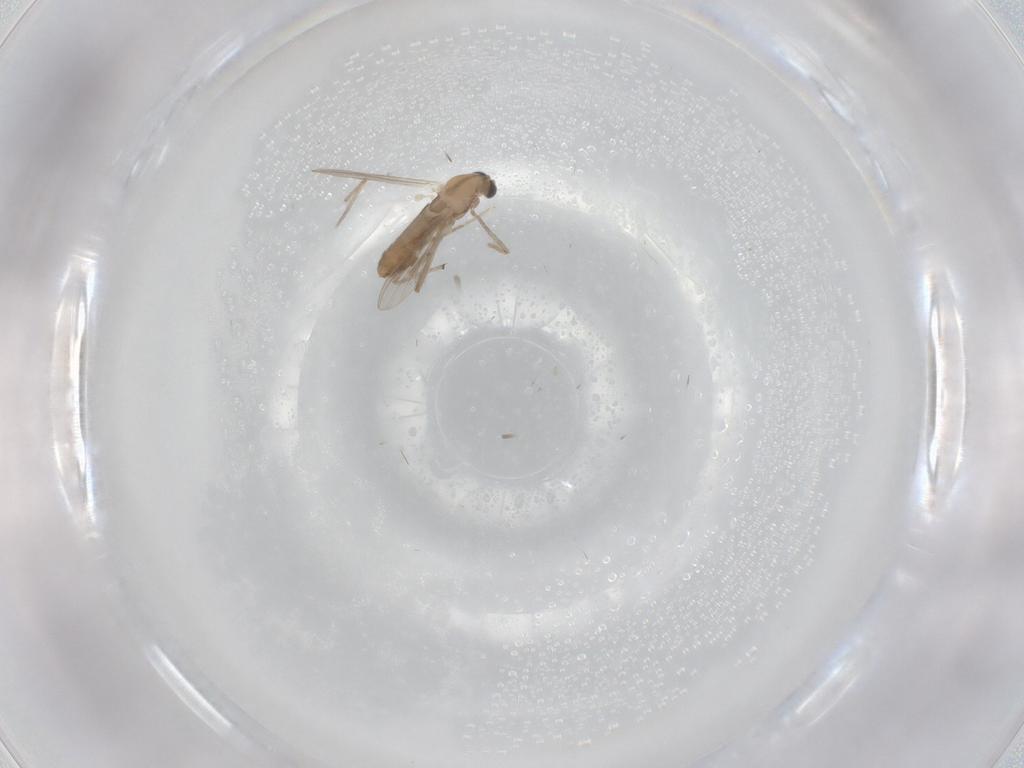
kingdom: Animalia
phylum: Arthropoda
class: Insecta
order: Diptera
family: Chironomidae
